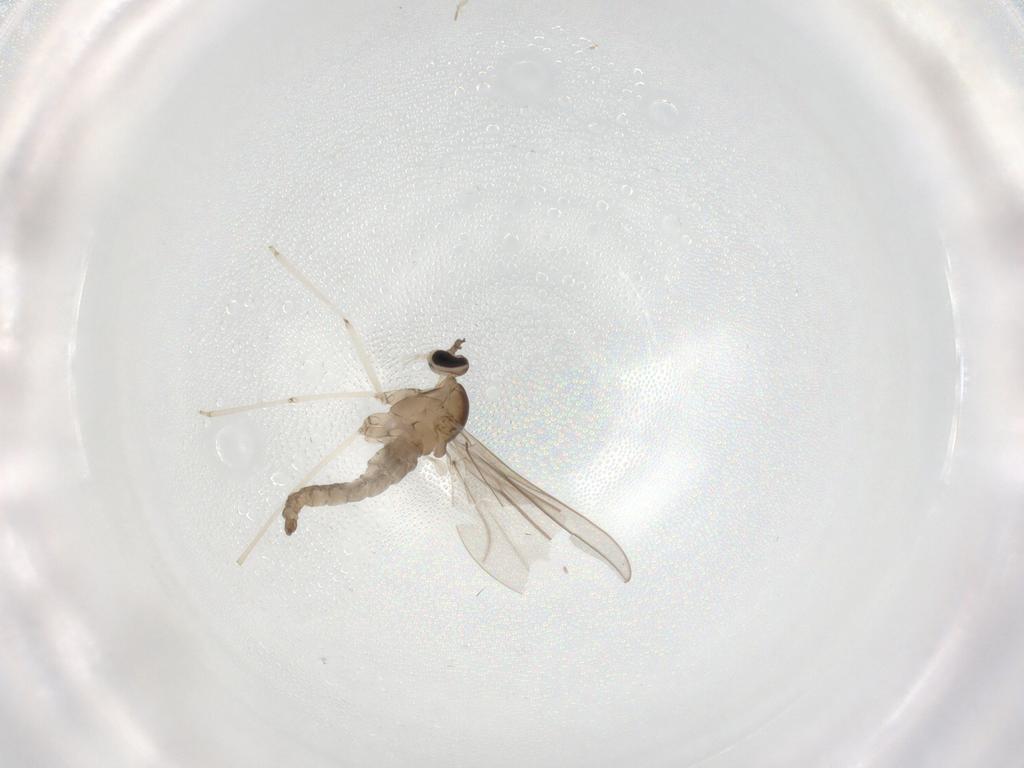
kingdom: Animalia
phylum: Arthropoda
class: Insecta
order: Diptera
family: Cecidomyiidae
